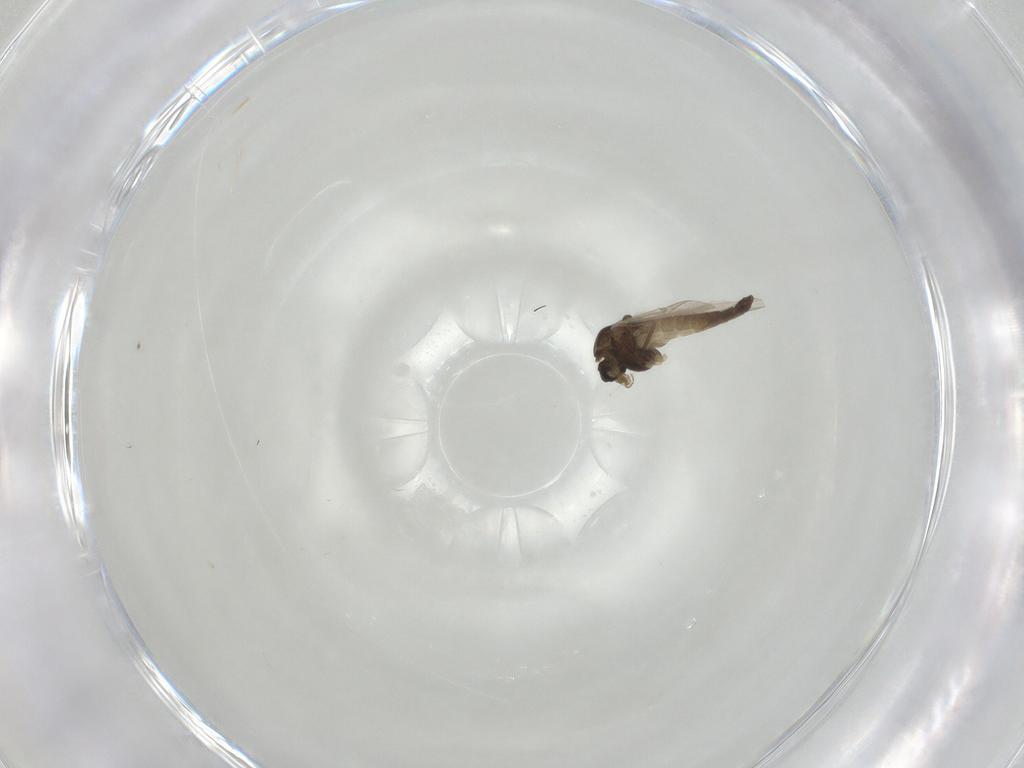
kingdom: Animalia
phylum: Arthropoda
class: Insecta
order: Diptera
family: Chironomidae
